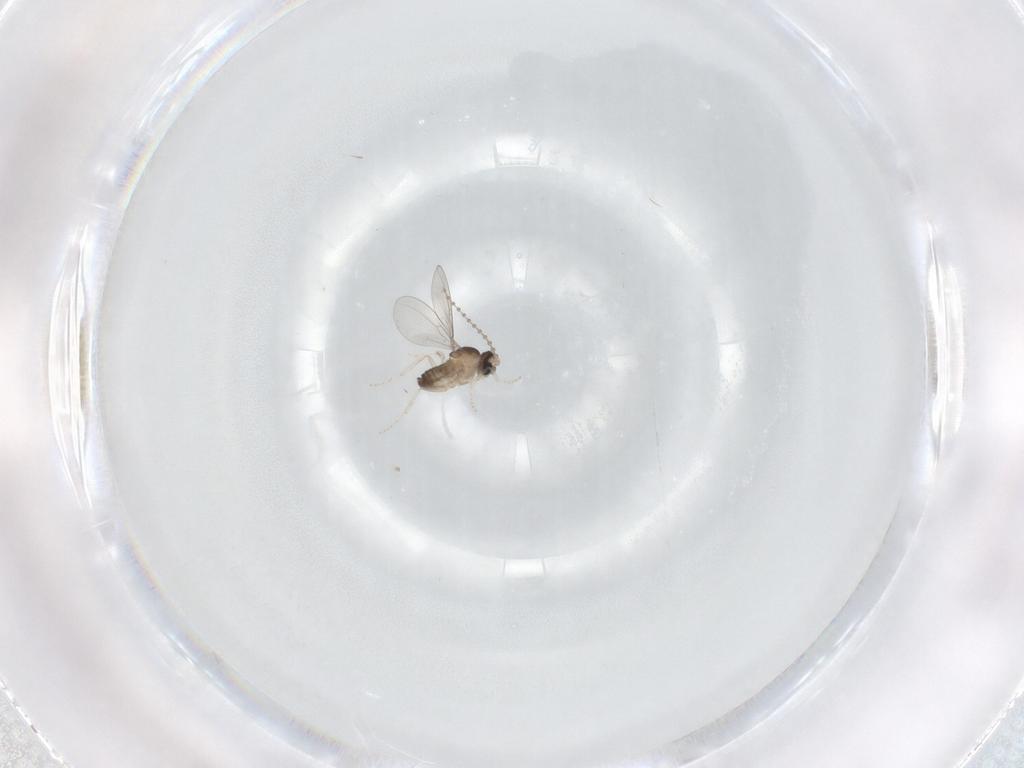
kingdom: Animalia
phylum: Arthropoda
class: Insecta
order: Diptera
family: Cecidomyiidae
